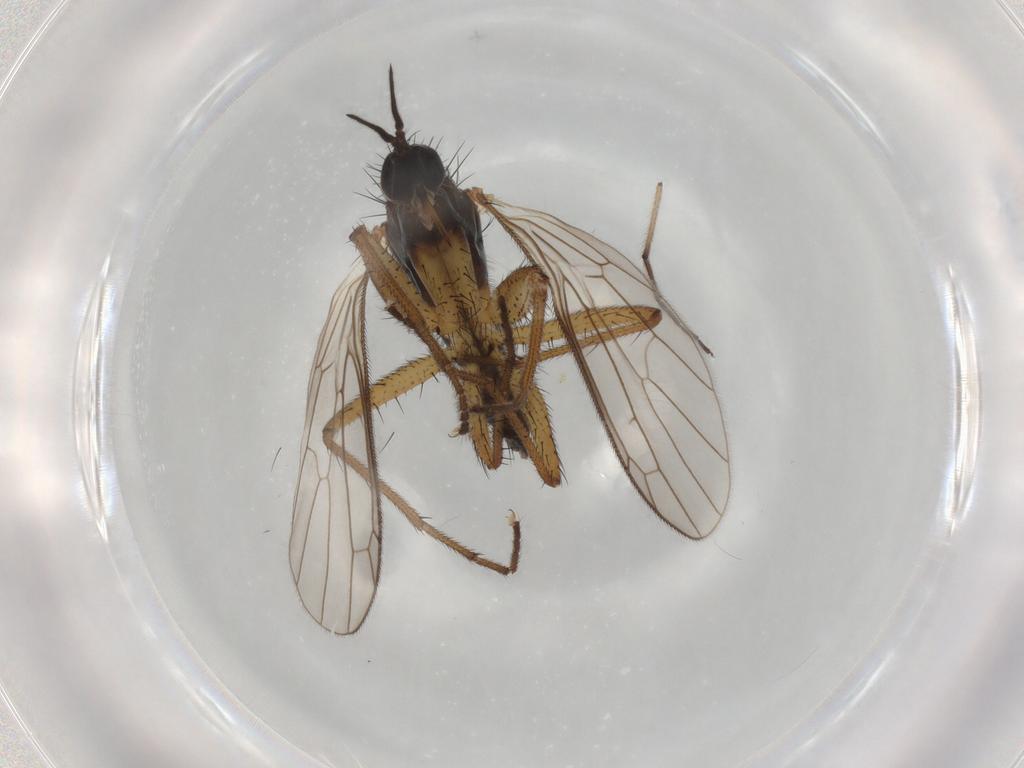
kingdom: Animalia
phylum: Arthropoda
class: Insecta
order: Diptera
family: Empididae
